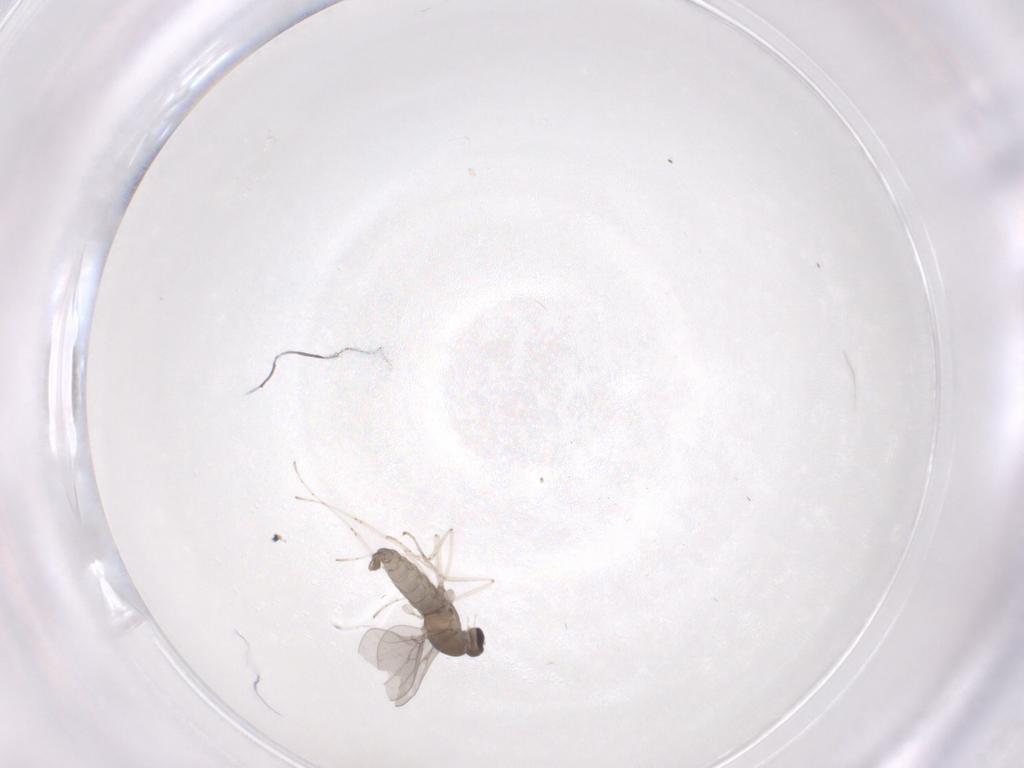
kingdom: Animalia
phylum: Arthropoda
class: Insecta
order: Diptera
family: Cecidomyiidae
